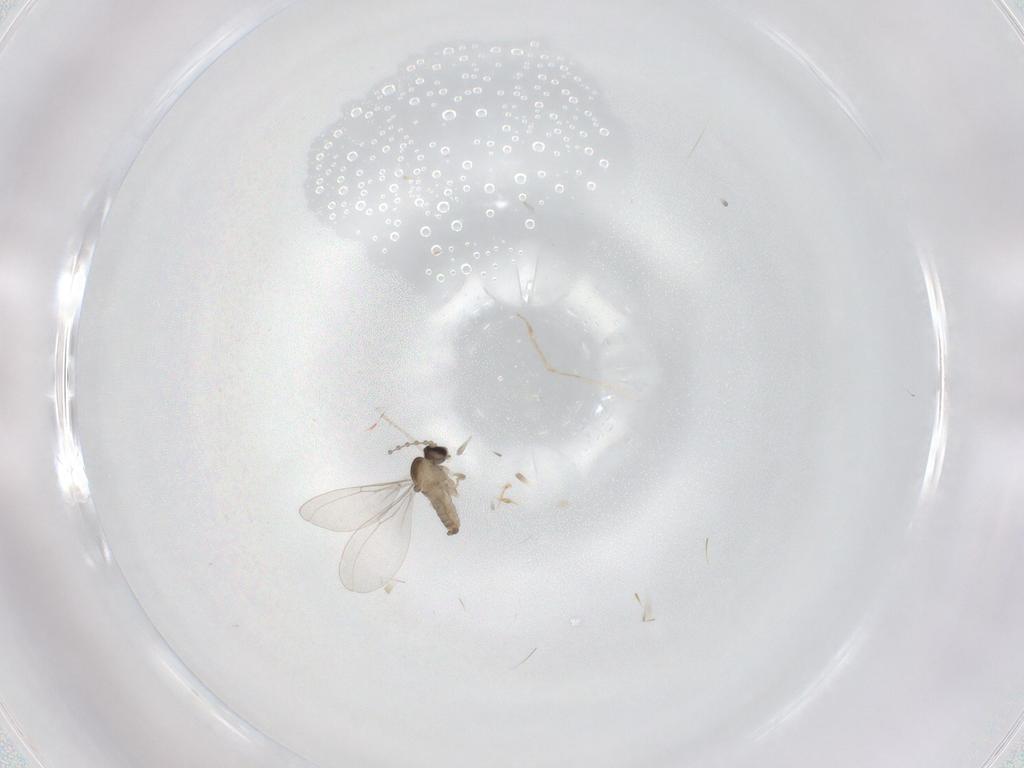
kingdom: Animalia
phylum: Arthropoda
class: Insecta
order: Diptera
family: Cecidomyiidae
